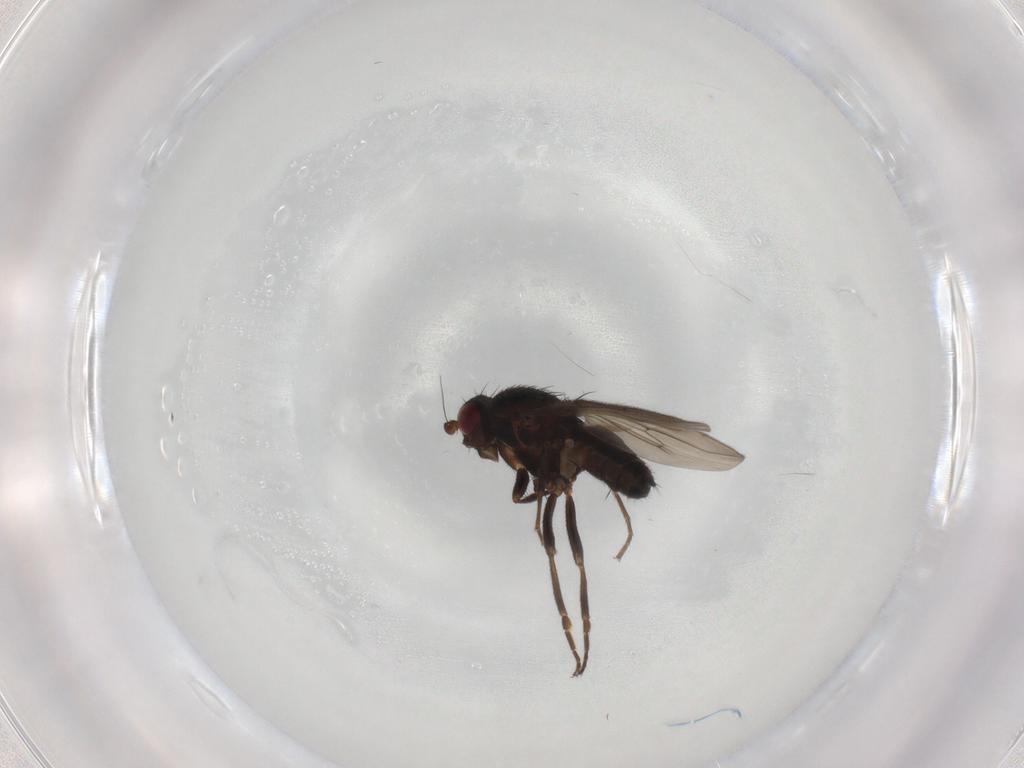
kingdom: Animalia
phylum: Arthropoda
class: Insecta
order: Diptera
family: Sphaeroceridae
